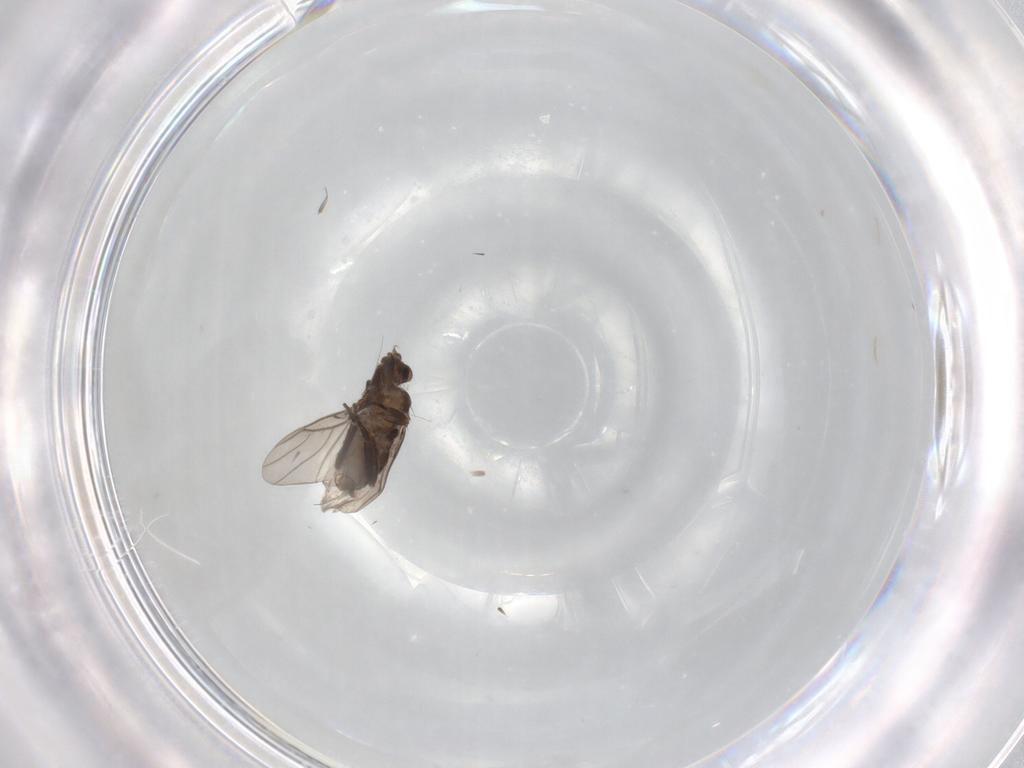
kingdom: Animalia
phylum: Arthropoda
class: Insecta
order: Diptera
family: Phoridae
